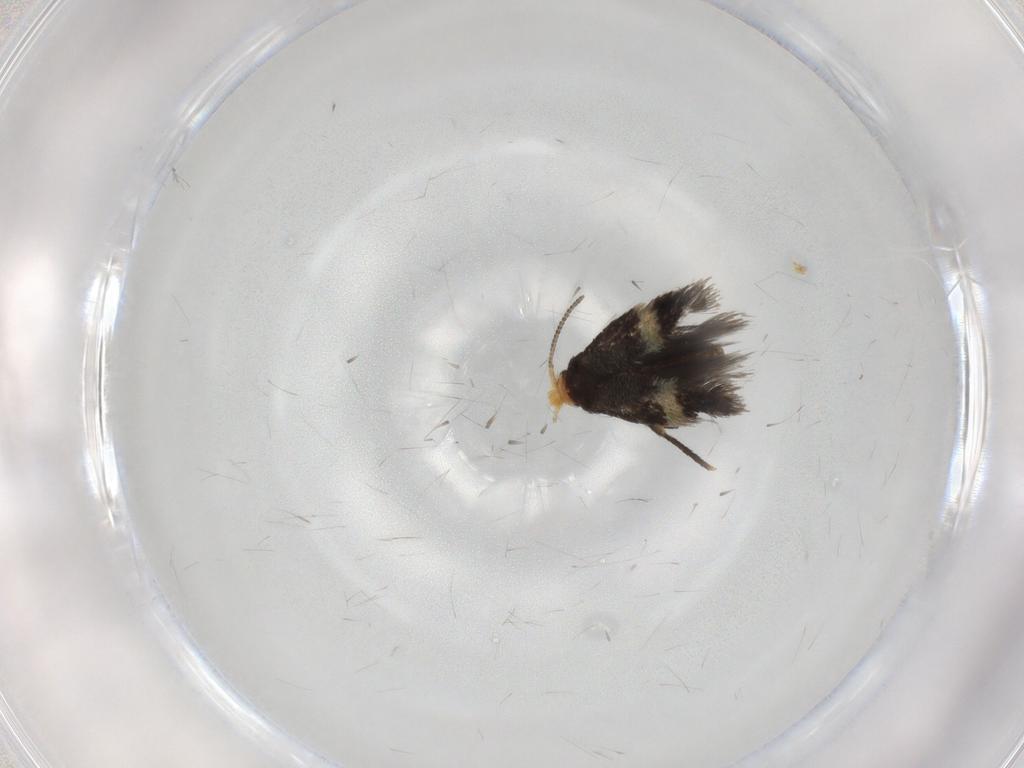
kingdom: Animalia
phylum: Arthropoda
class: Insecta
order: Lepidoptera
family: Nepticulidae
